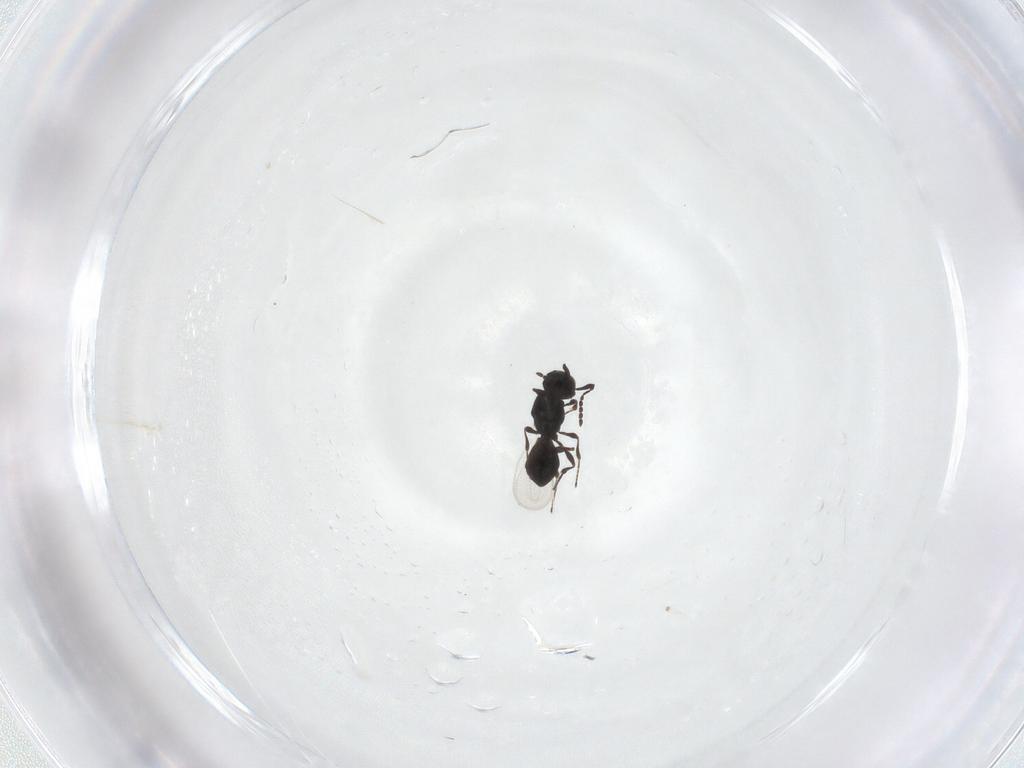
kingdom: Animalia
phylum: Arthropoda
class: Insecta
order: Hymenoptera
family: Platygastridae
